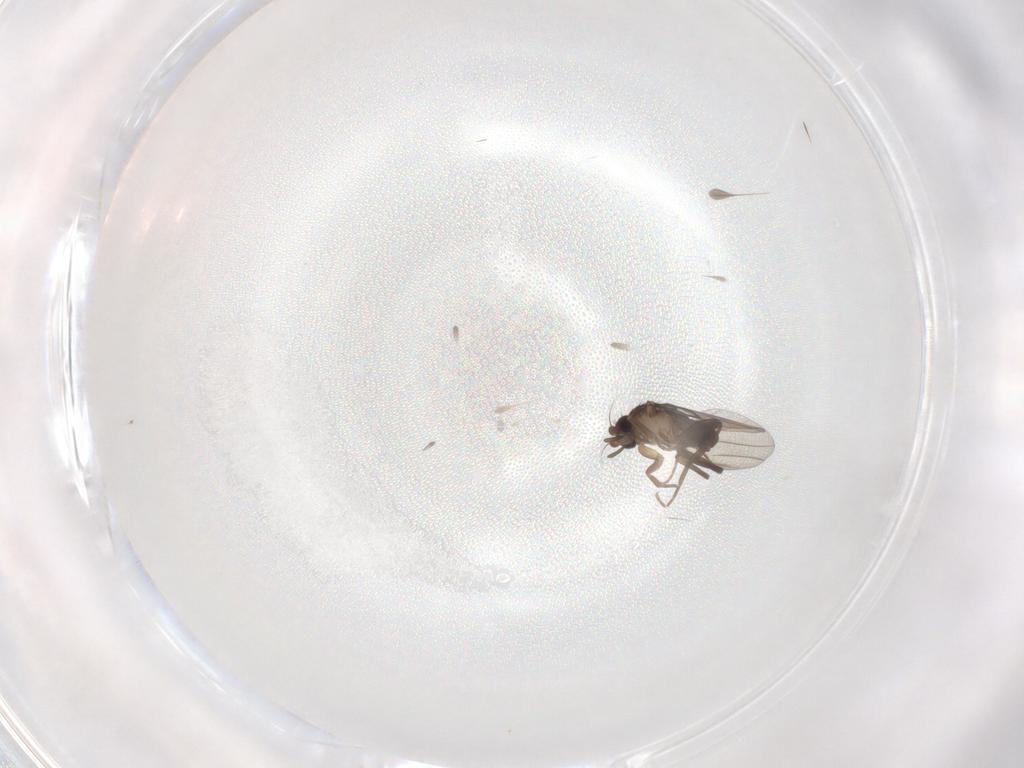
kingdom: Animalia
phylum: Arthropoda
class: Insecta
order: Diptera
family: Phoridae
